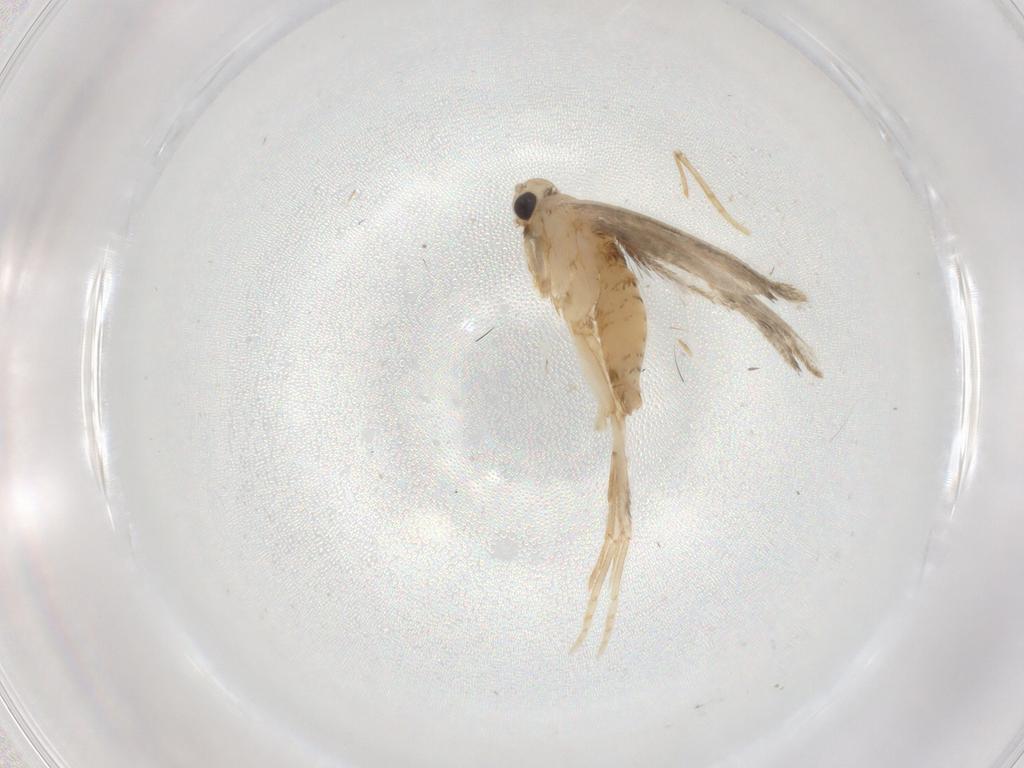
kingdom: Animalia
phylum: Arthropoda
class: Insecta
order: Lepidoptera
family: Psychidae
